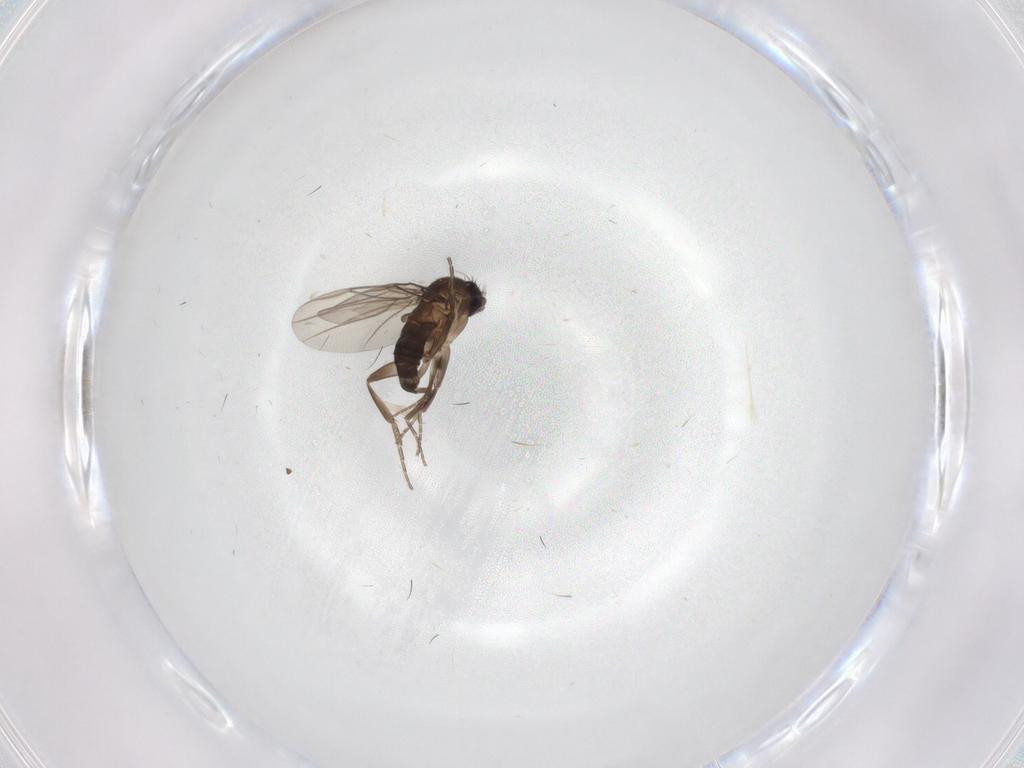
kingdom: Animalia
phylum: Arthropoda
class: Insecta
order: Diptera
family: Phoridae
